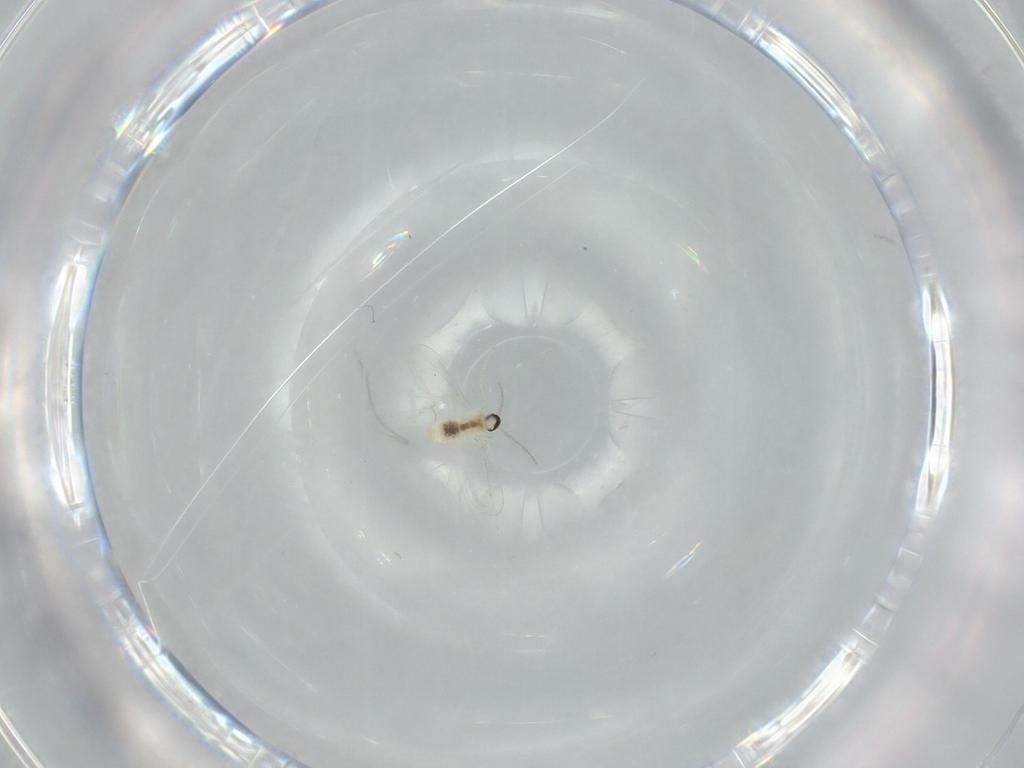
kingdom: Animalia
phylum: Arthropoda
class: Insecta
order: Diptera
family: Cecidomyiidae
